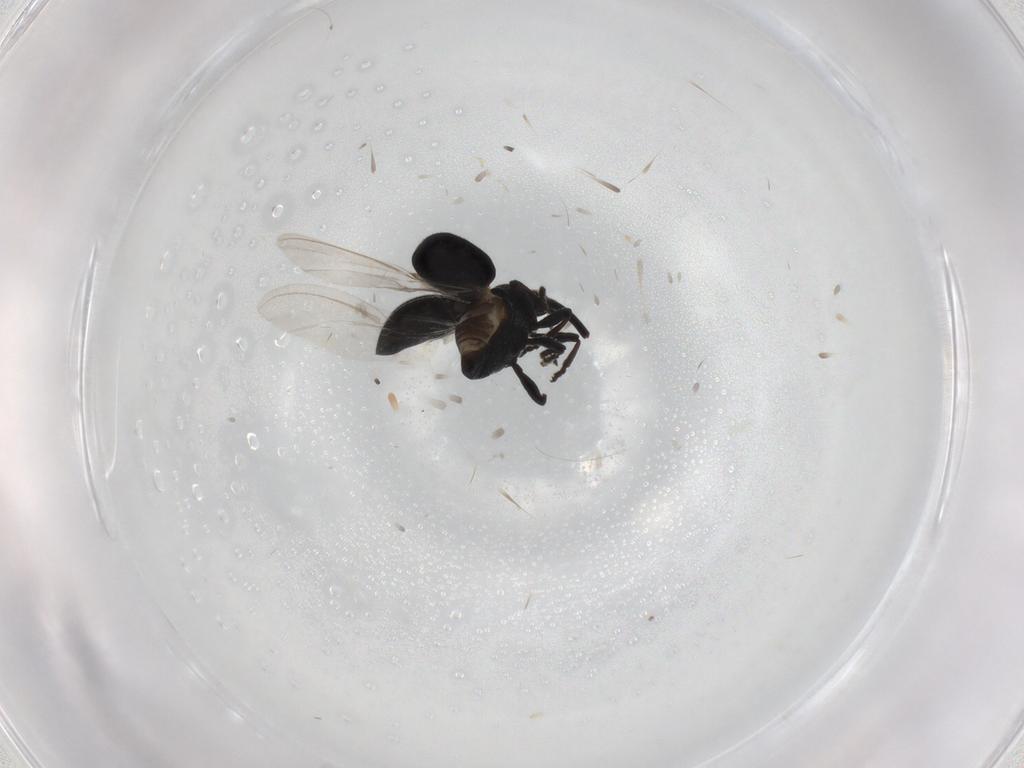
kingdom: Animalia
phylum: Arthropoda
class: Insecta
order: Coleoptera
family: Brentidae
